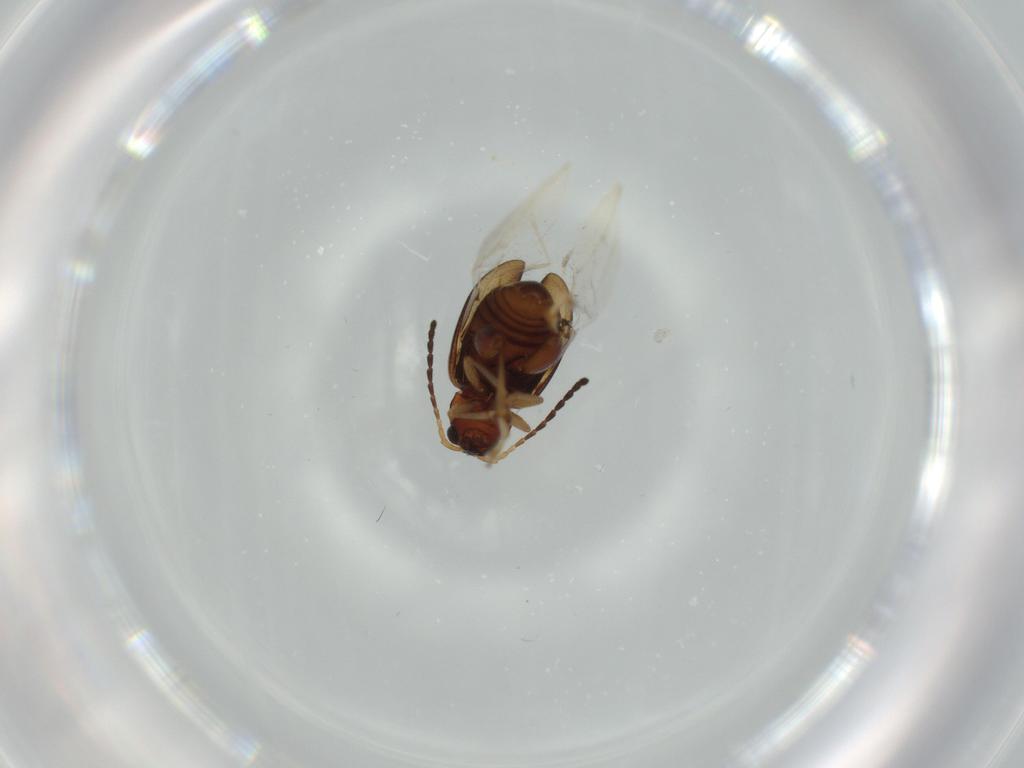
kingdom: Animalia
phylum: Arthropoda
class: Insecta
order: Coleoptera
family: Chrysomelidae
